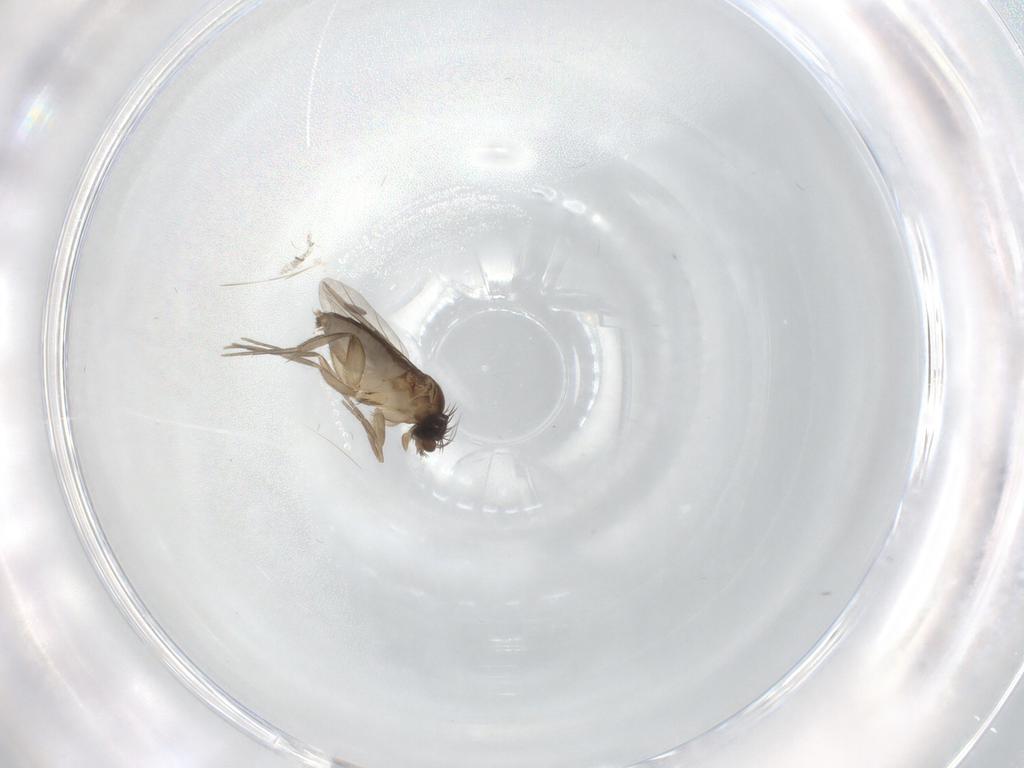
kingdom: Animalia
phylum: Arthropoda
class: Insecta
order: Diptera
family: Phoridae
